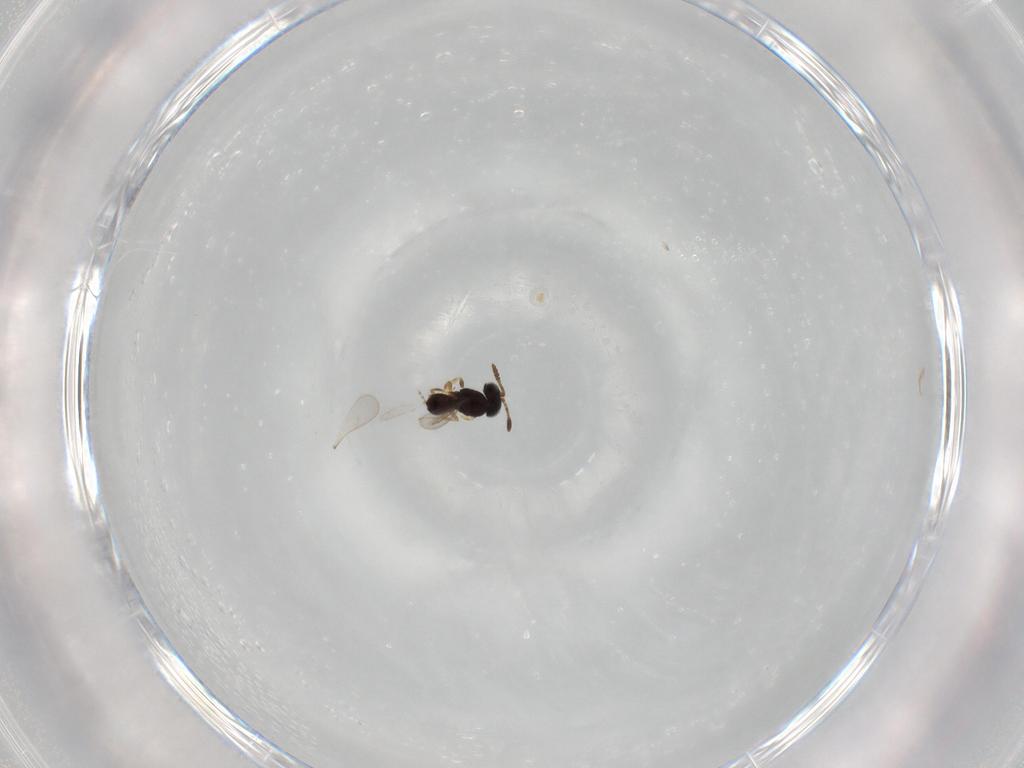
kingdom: Animalia
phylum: Arthropoda
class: Insecta
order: Hymenoptera
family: Scelionidae
